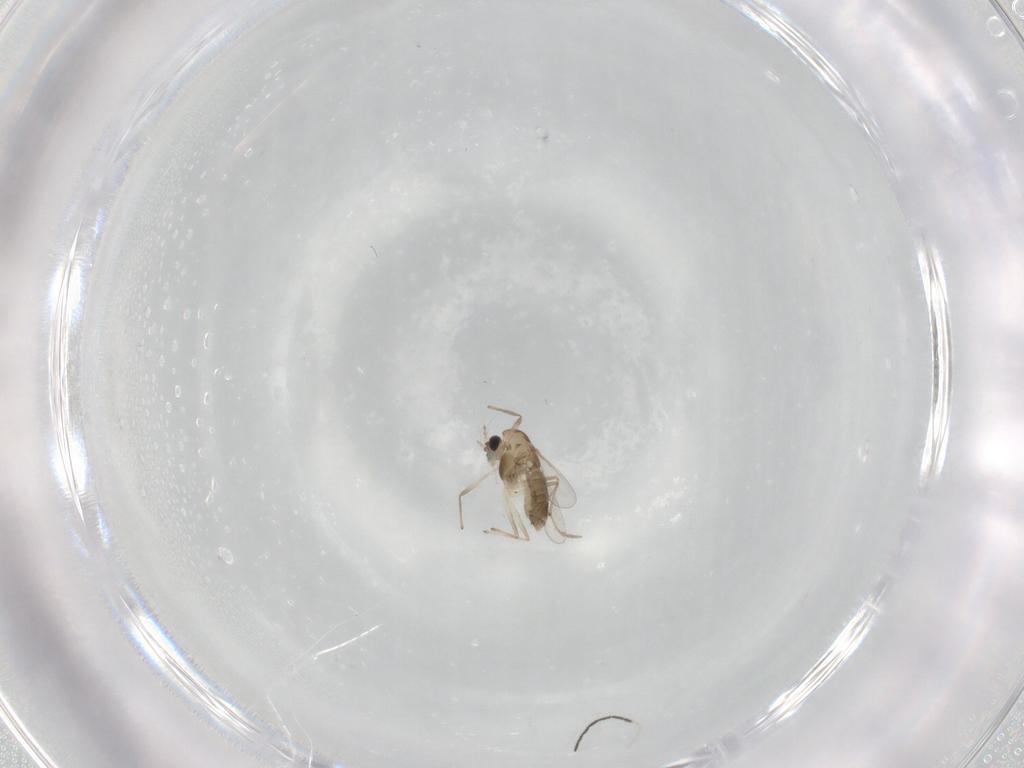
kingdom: Animalia
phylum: Arthropoda
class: Insecta
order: Diptera
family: Chironomidae
